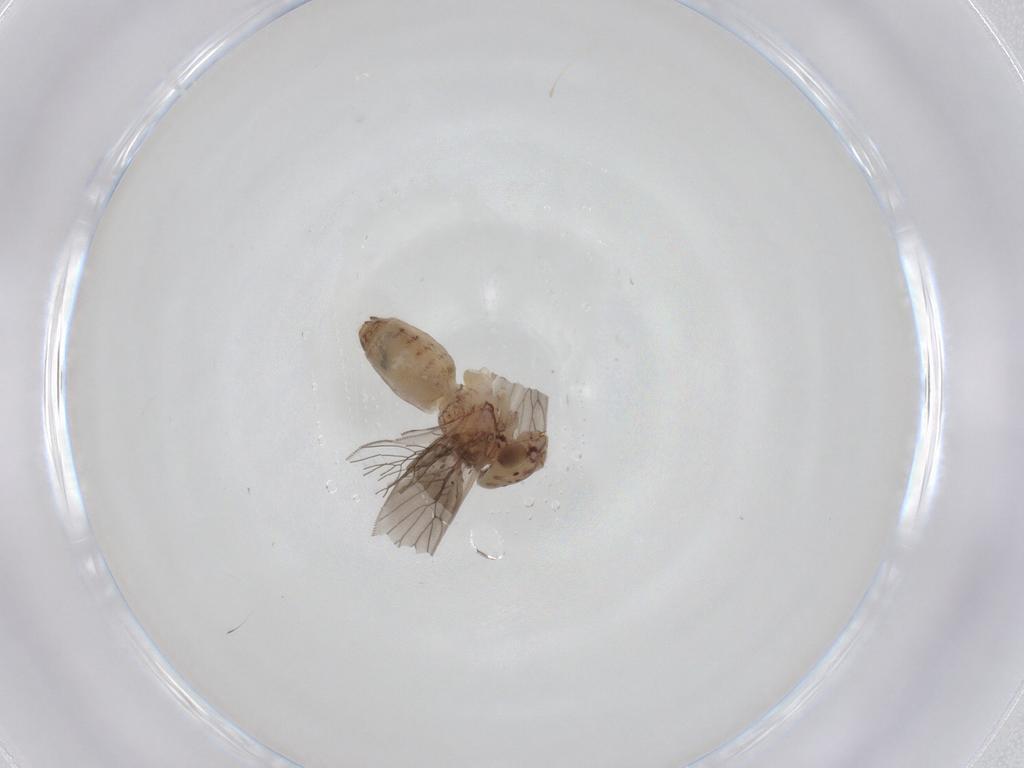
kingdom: Animalia
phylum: Arthropoda
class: Insecta
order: Psocodea
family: Lepidopsocidae
